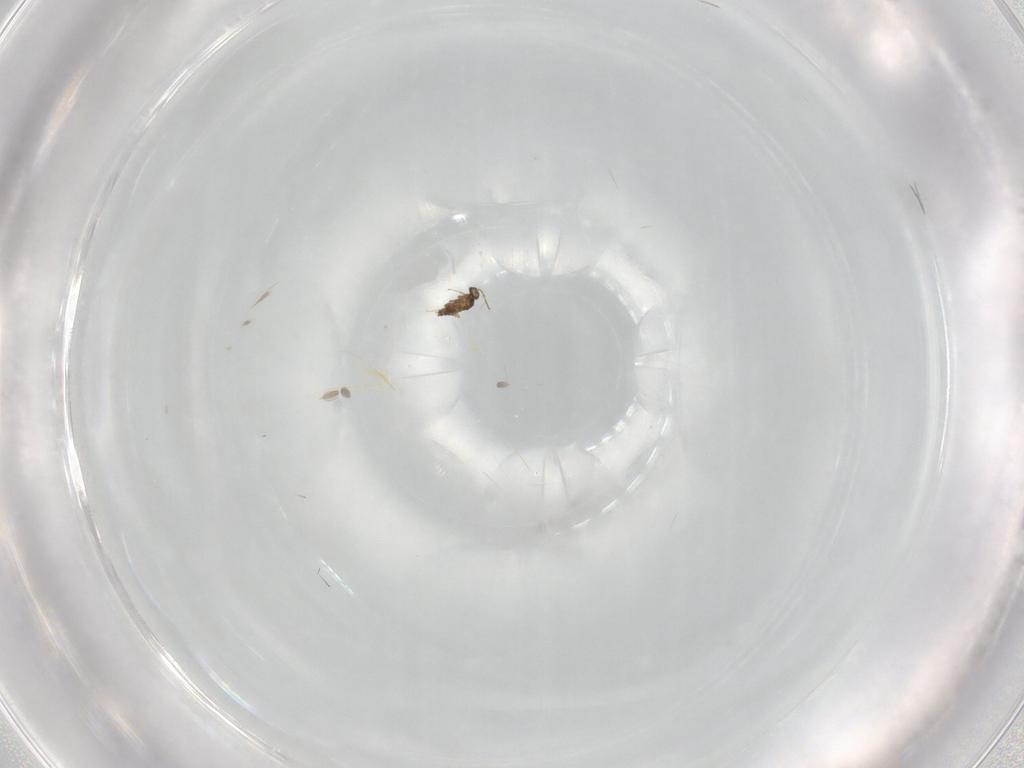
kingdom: Animalia
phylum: Arthropoda
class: Insecta
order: Hymenoptera
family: Mymaridae
